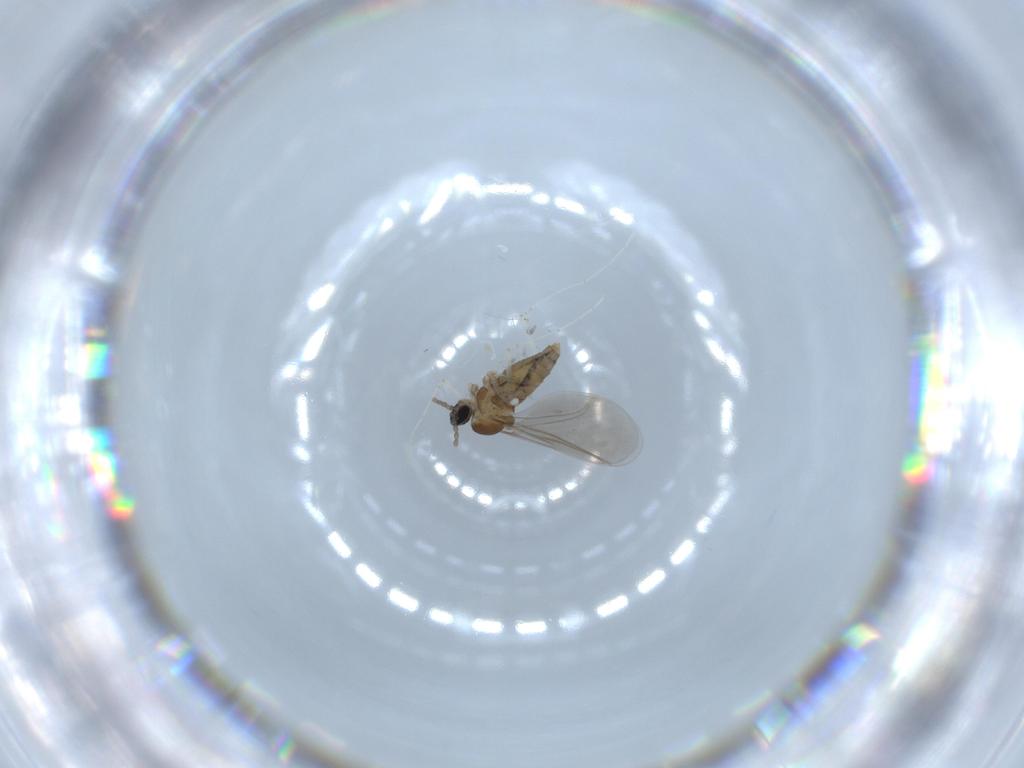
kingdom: Animalia
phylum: Arthropoda
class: Insecta
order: Diptera
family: Cecidomyiidae
